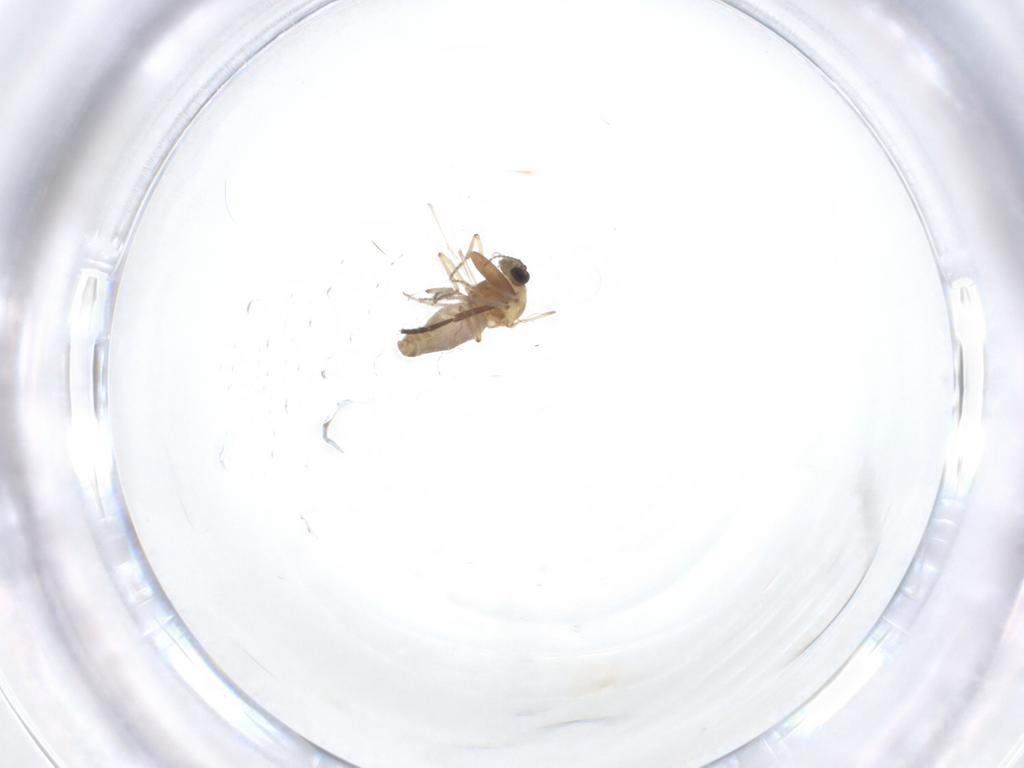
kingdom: Animalia
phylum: Arthropoda
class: Insecta
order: Diptera
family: Ceratopogonidae
